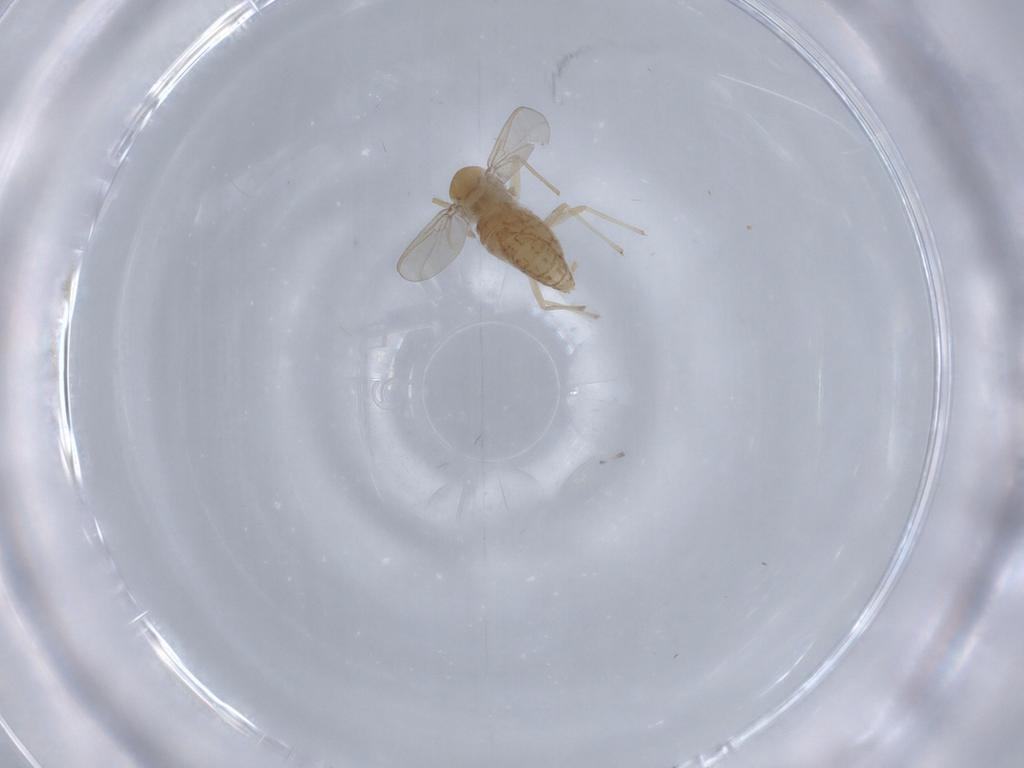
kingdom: Animalia
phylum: Arthropoda
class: Insecta
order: Diptera
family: Chironomidae
